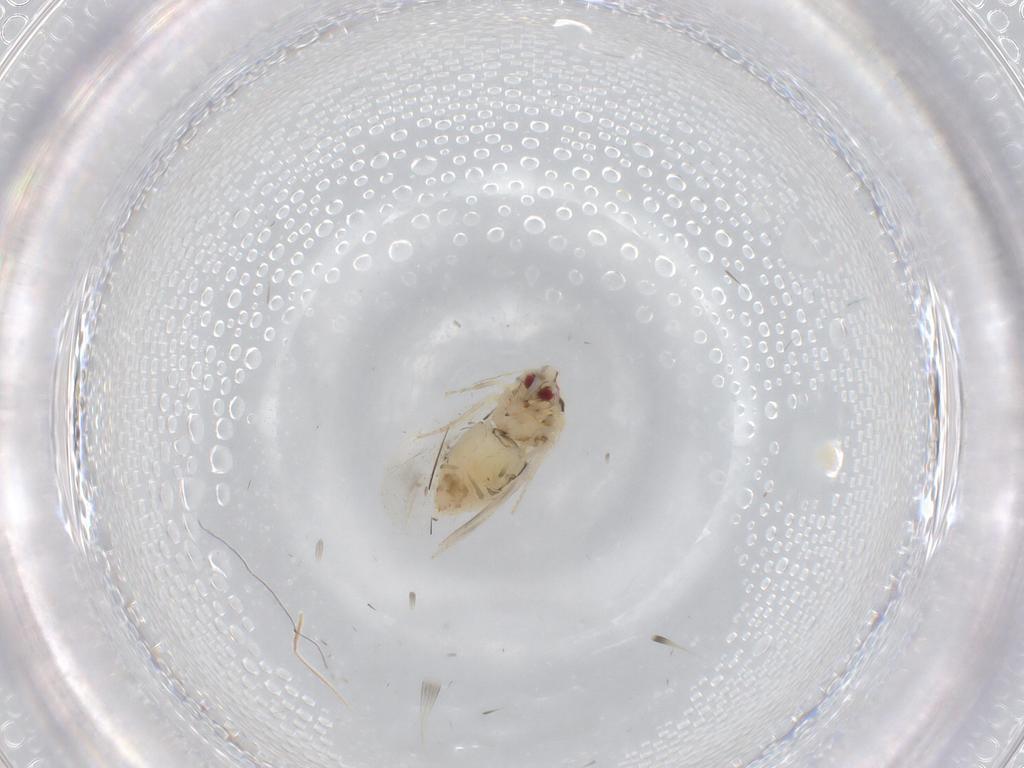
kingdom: Animalia
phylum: Arthropoda
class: Insecta
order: Hemiptera
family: Aleyrodidae
